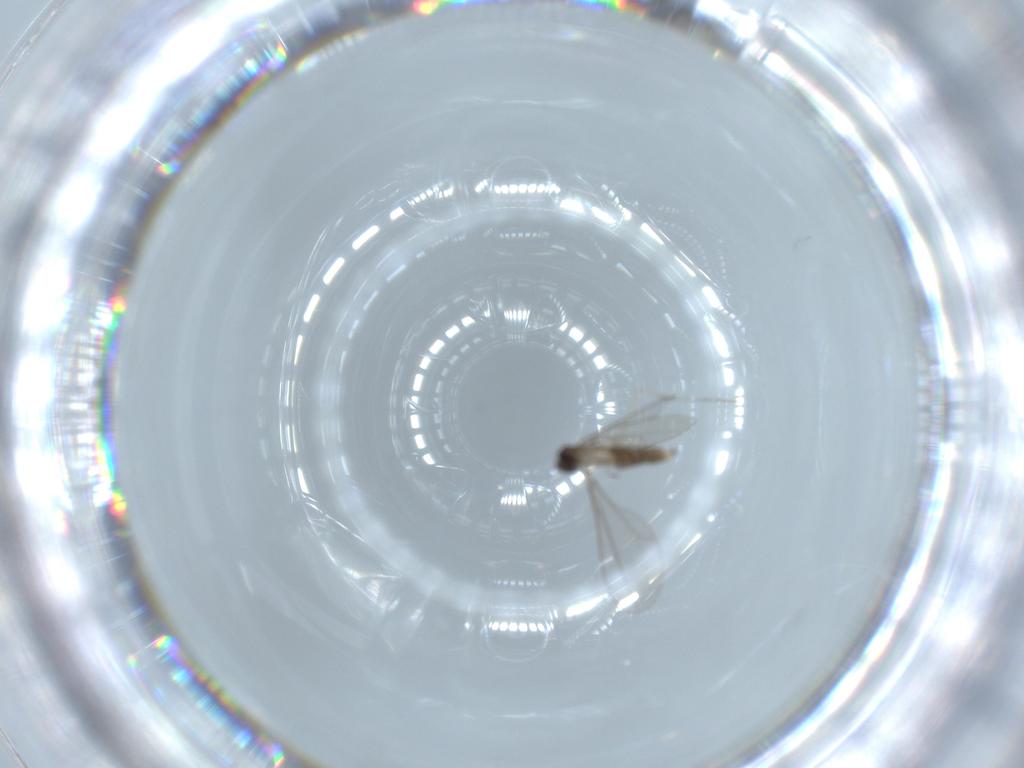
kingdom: Animalia
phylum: Arthropoda
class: Insecta
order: Diptera
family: Cecidomyiidae
